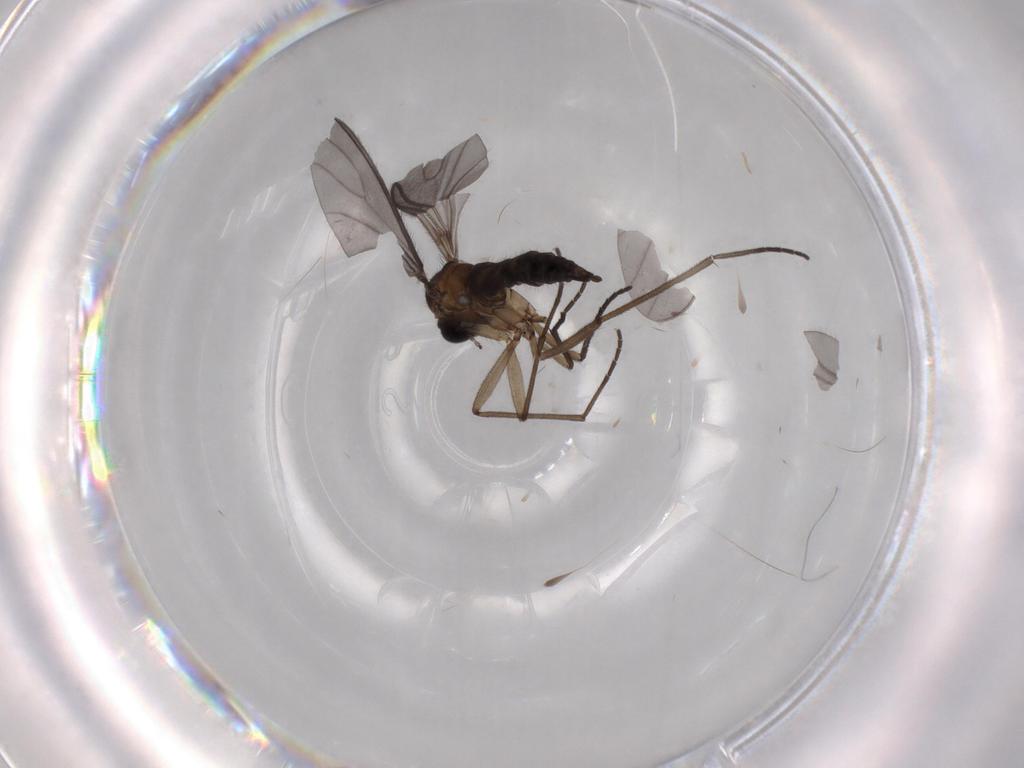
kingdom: Animalia
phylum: Arthropoda
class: Insecta
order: Diptera
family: Sciaridae
